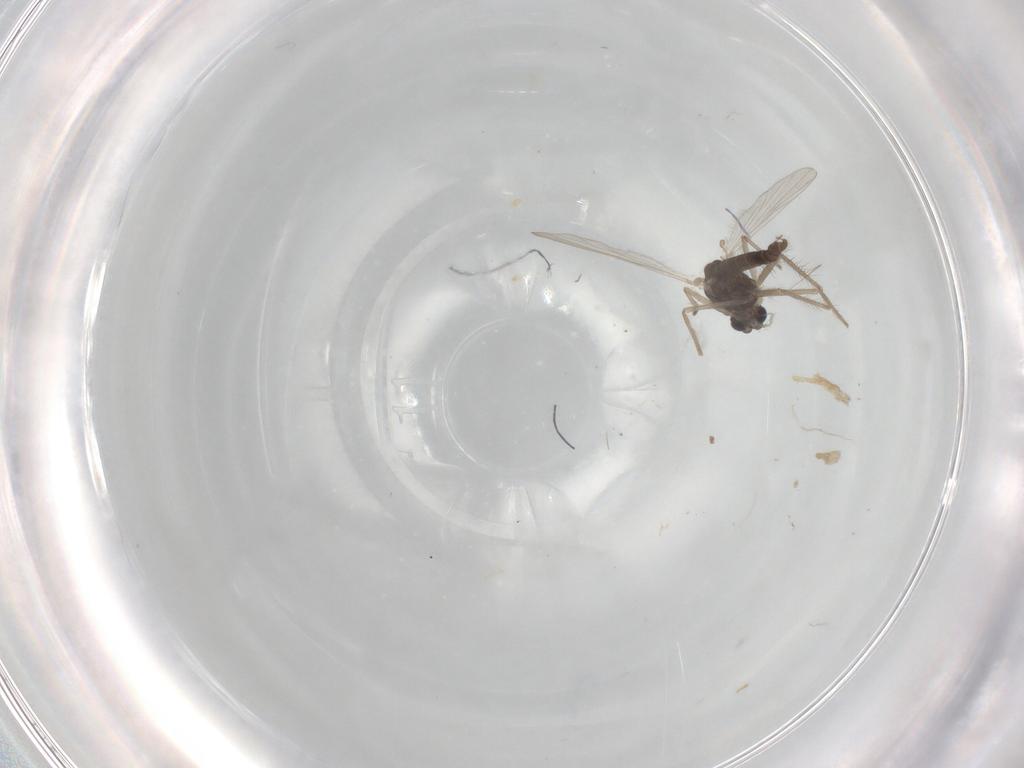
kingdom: Animalia
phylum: Arthropoda
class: Insecta
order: Diptera
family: Chironomidae
